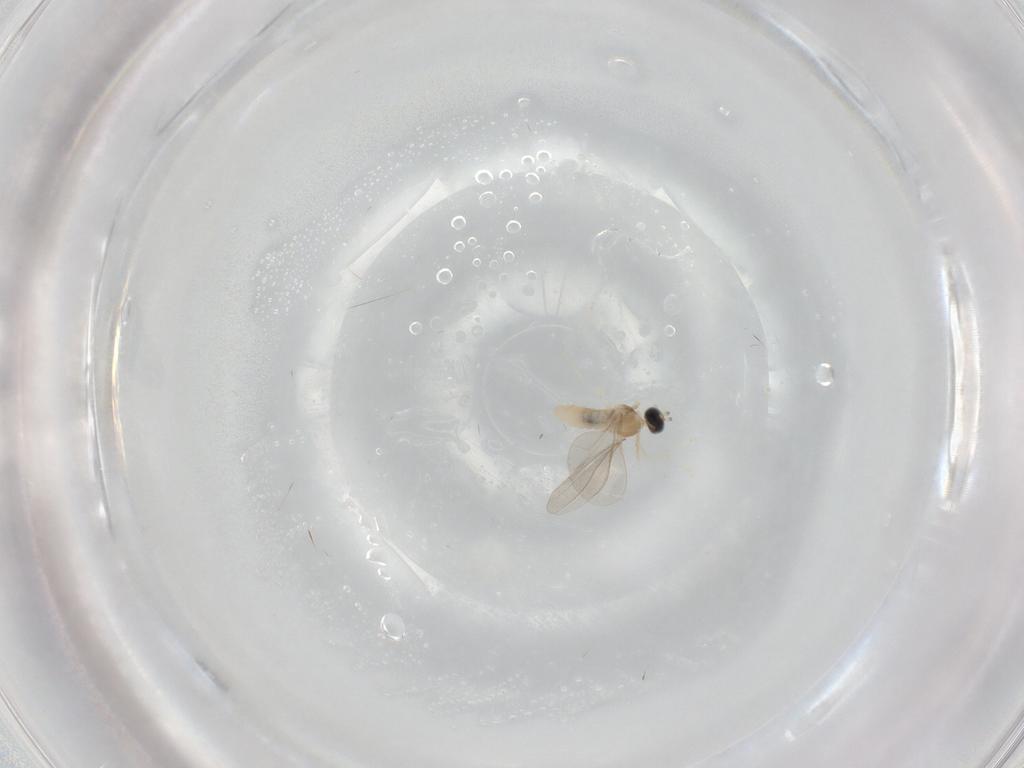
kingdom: Animalia
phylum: Arthropoda
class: Insecta
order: Diptera
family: Cecidomyiidae
